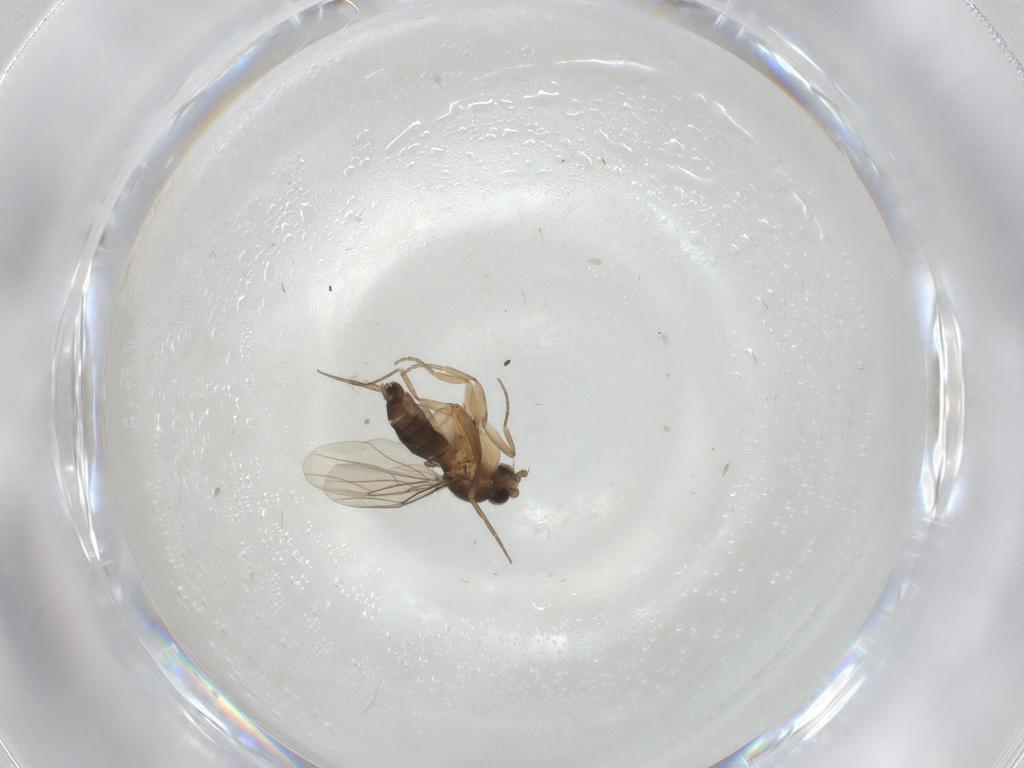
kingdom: Animalia
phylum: Arthropoda
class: Insecta
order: Diptera
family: Phoridae
